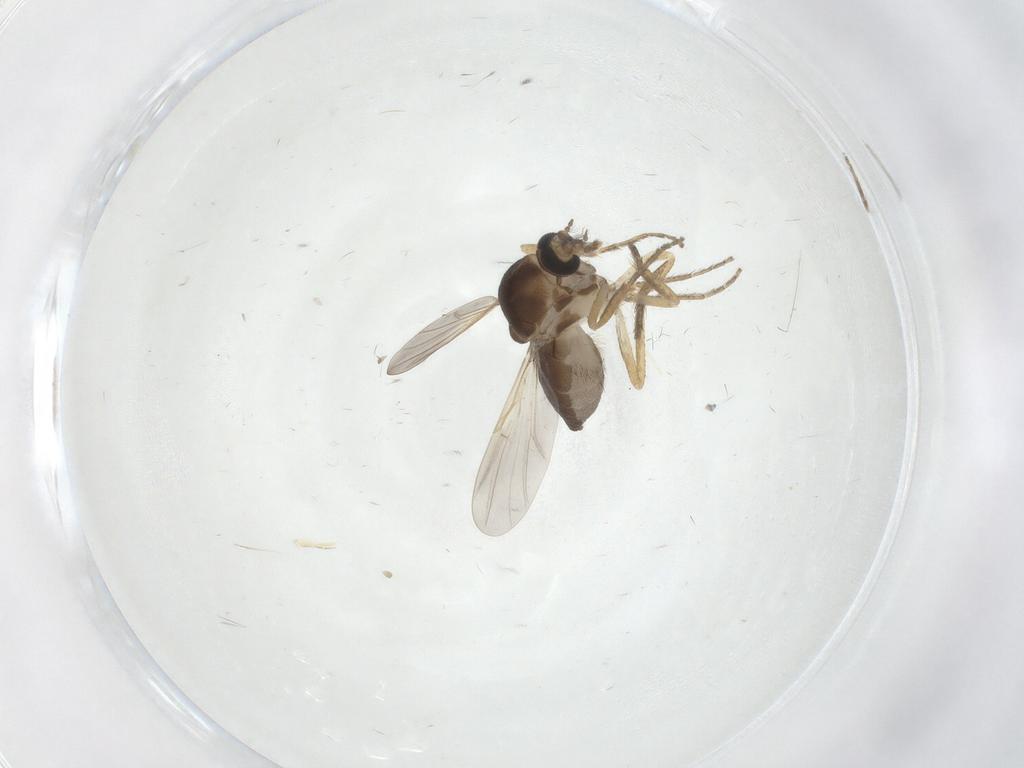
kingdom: Animalia
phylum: Arthropoda
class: Insecta
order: Diptera
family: Ceratopogonidae
